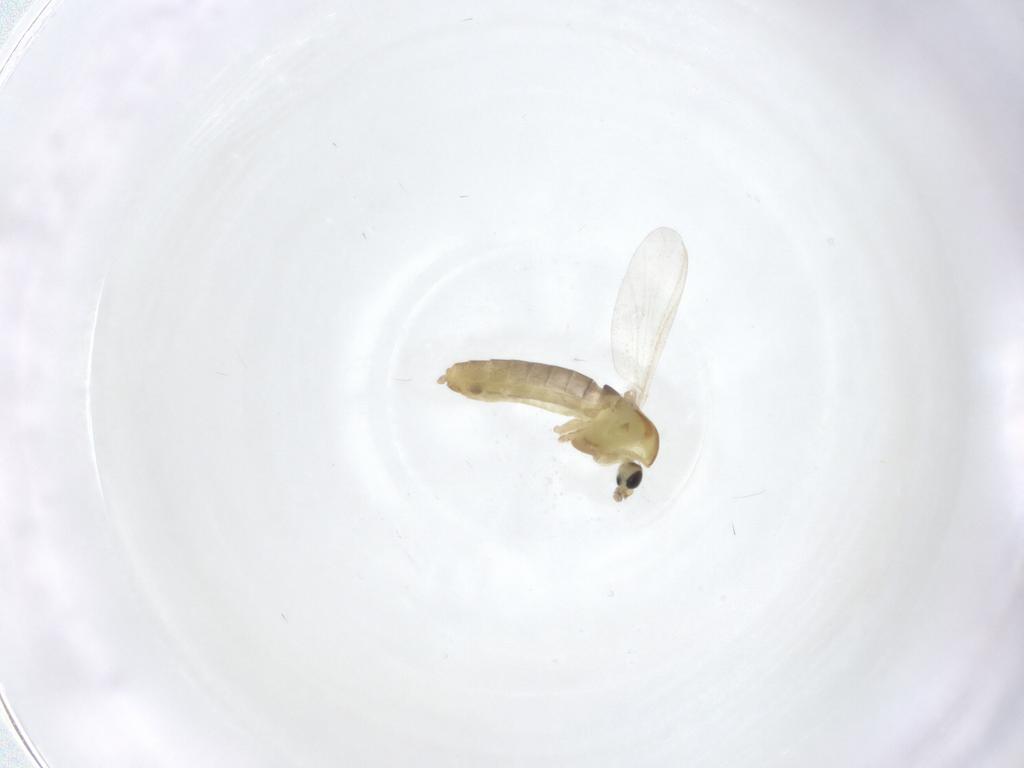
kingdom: Animalia
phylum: Arthropoda
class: Insecta
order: Diptera
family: Chironomidae
